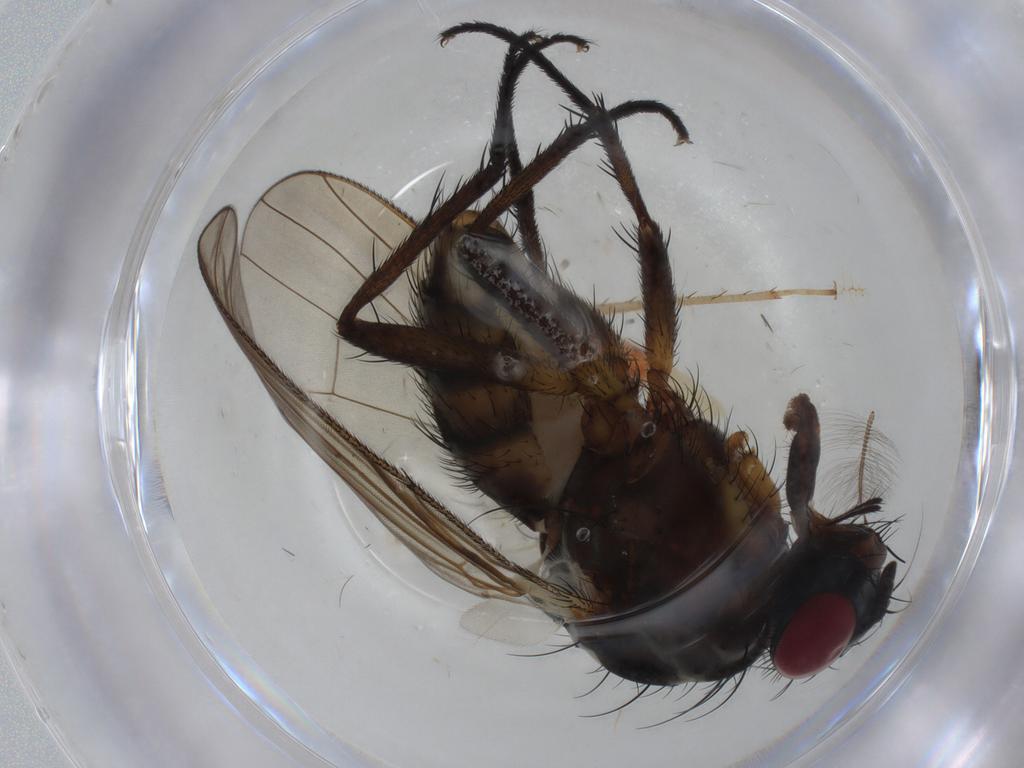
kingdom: Animalia
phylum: Arthropoda
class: Insecta
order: Diptera
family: Anthomyiidae
